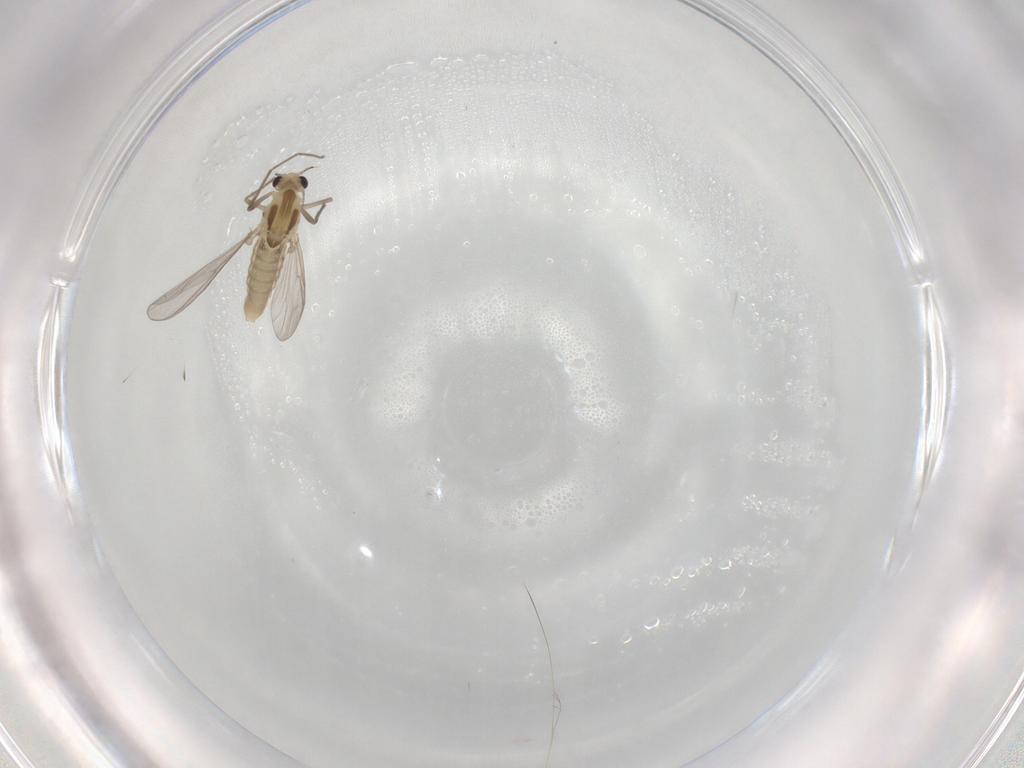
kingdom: Animalia
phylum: Arthropoda
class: Insecta
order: Diptera
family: Chironomidae
